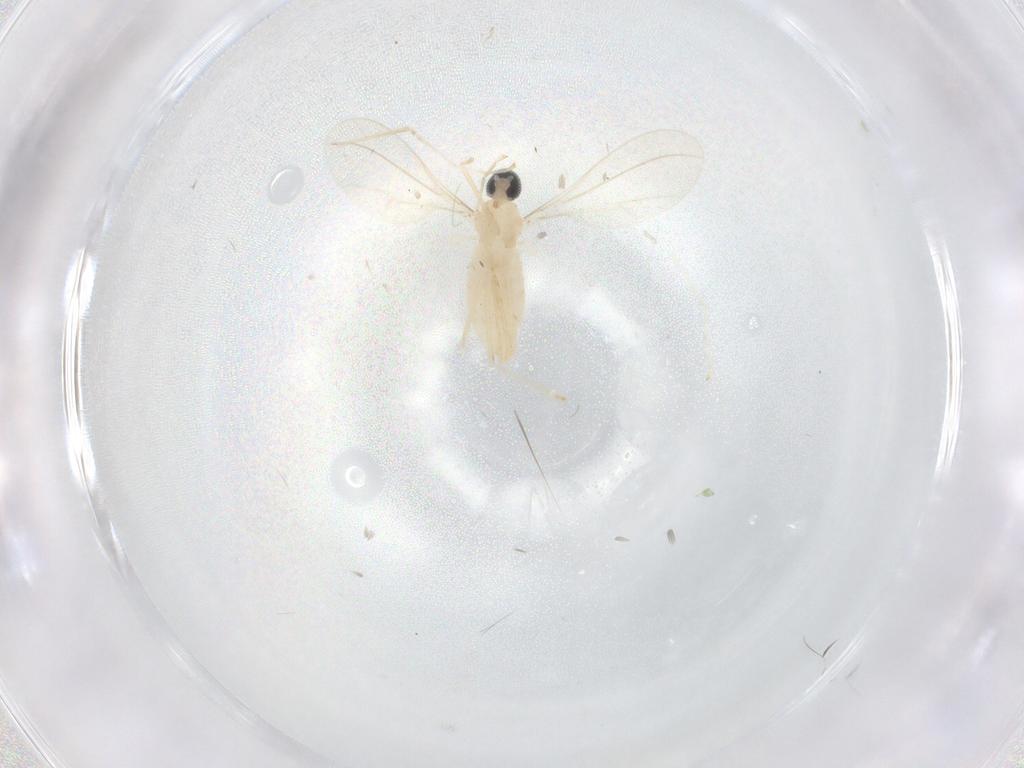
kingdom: Animalia
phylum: Arthropoda
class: Insecta
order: Diptera
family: Cecidomyiidae
